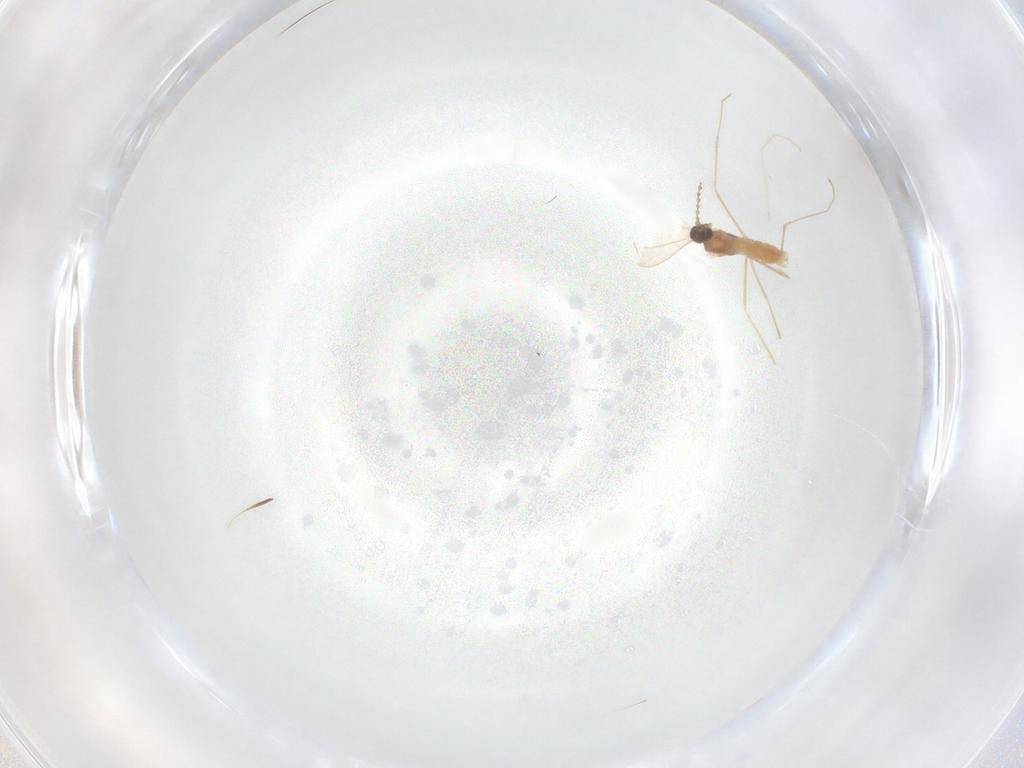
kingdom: Animalia
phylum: Arthropoda
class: Insecta
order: Diptera
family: Cecidomyiidae
